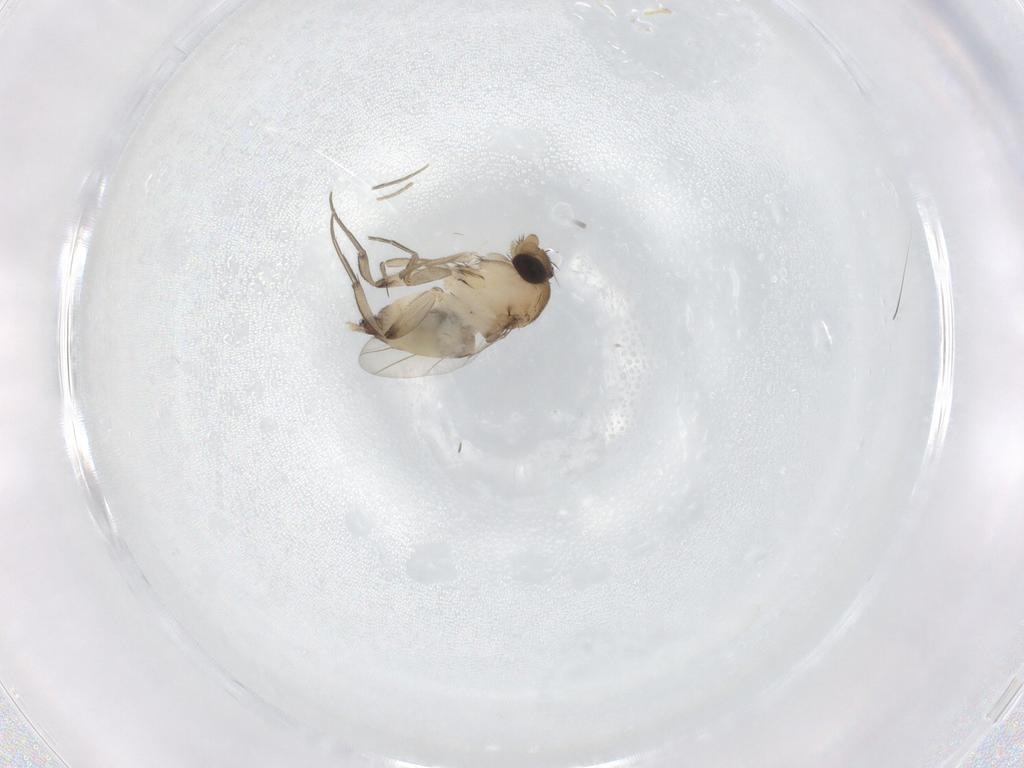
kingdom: Animalia
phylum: Arthropoda
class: Insecta
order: Diptera
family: Phoridae
